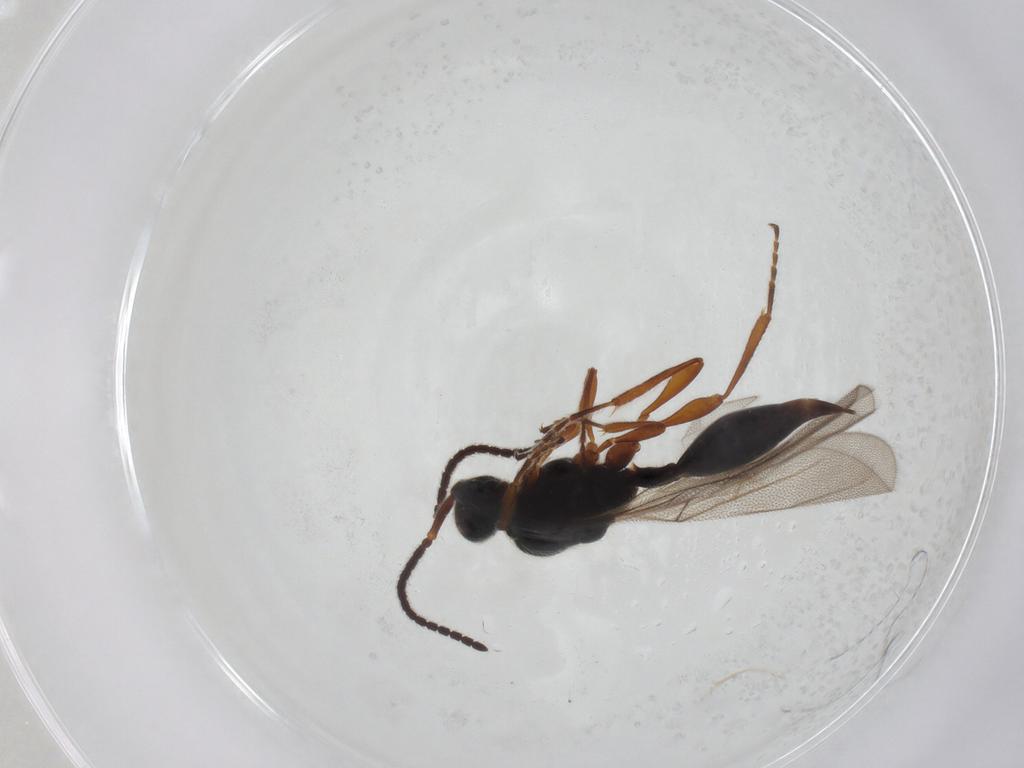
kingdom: Animalia
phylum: Arthropoda
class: Insecta
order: Hymenoptera
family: Diapriidae
